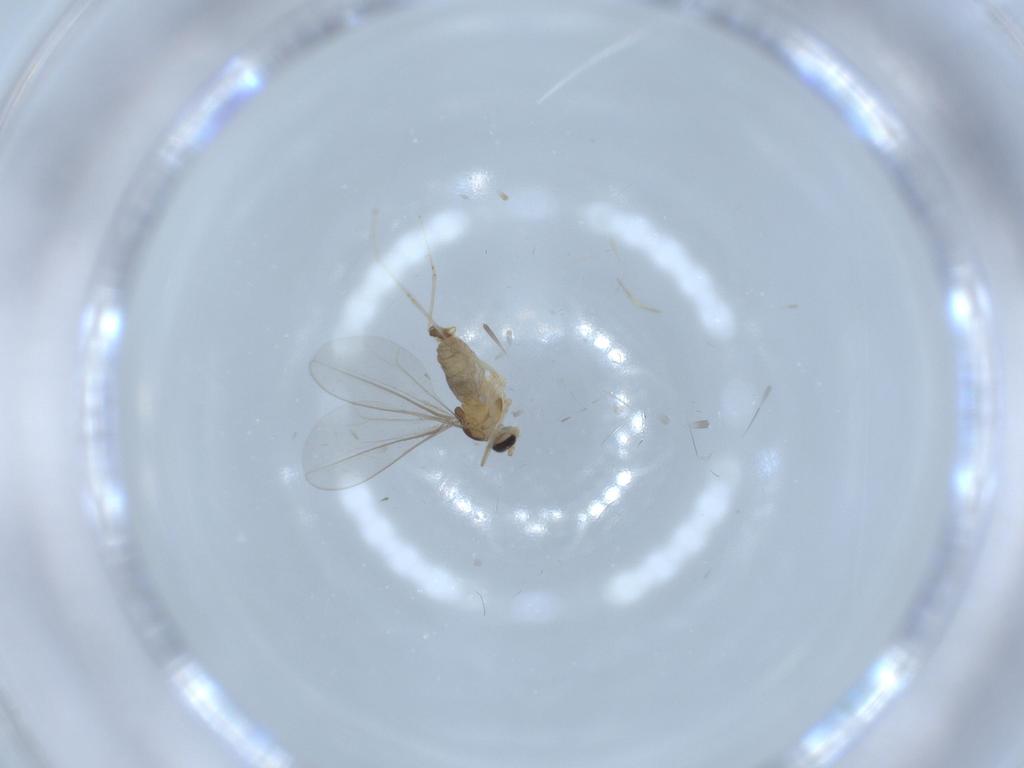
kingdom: Animalia
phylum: Arthropoda
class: Insecta
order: Diptera
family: Cecidomyiidae
